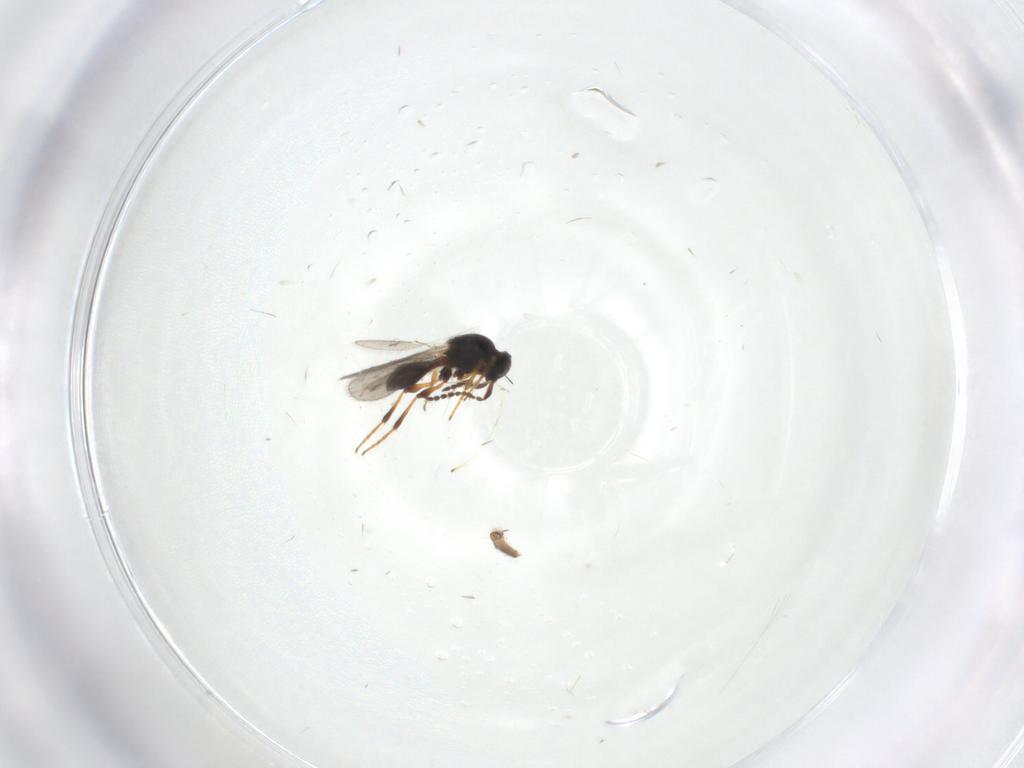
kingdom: Animalia
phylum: Arthropoda
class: Insecta
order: Hymenoptera
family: Platygastridae
